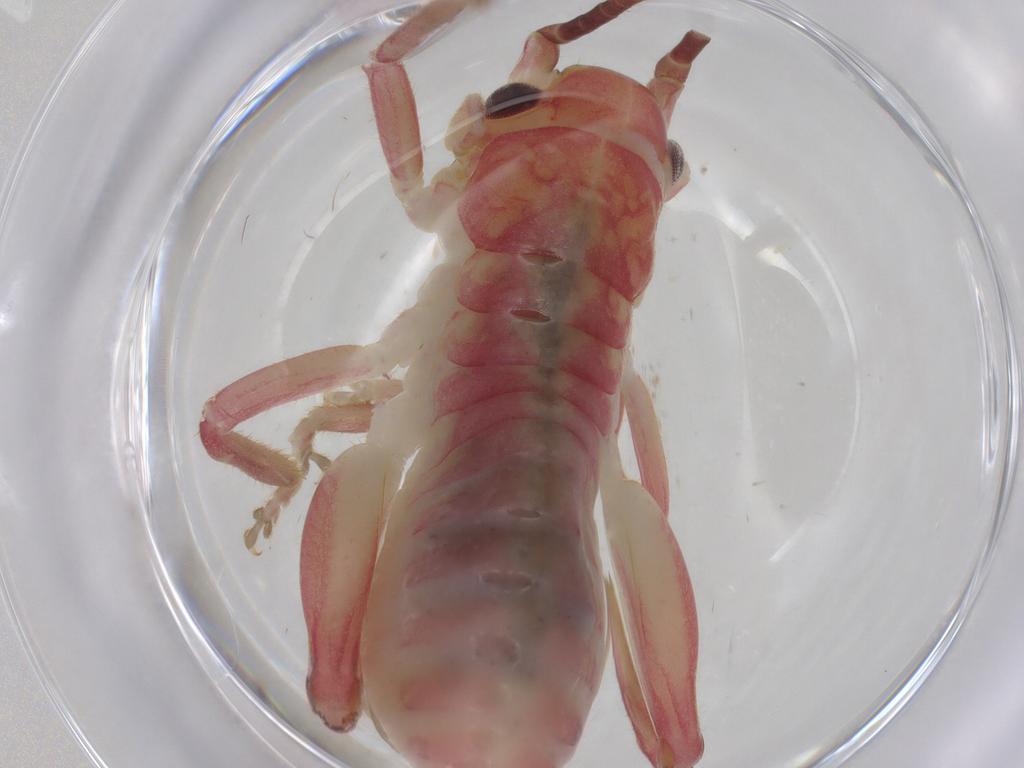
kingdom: Animalia
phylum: Arthropoda
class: Insecta
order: Orthoptera
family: Gryllacrididae
